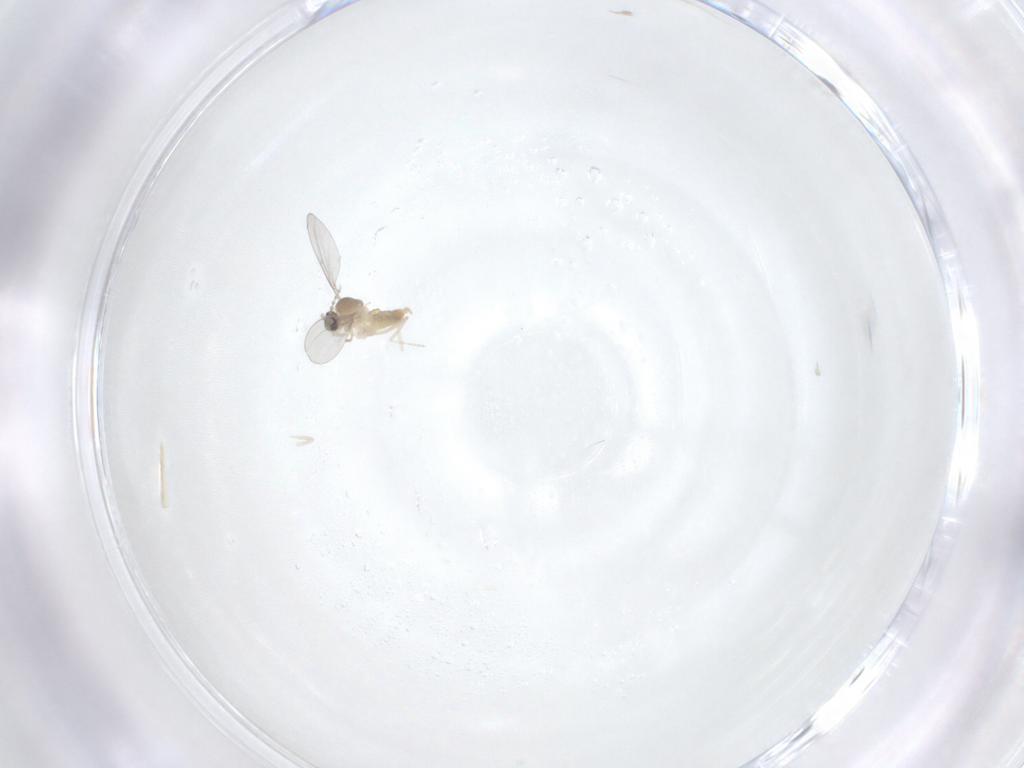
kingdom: Animalia
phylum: Arthropoda
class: Insecta
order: Diptera
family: Cecidomyiidae
